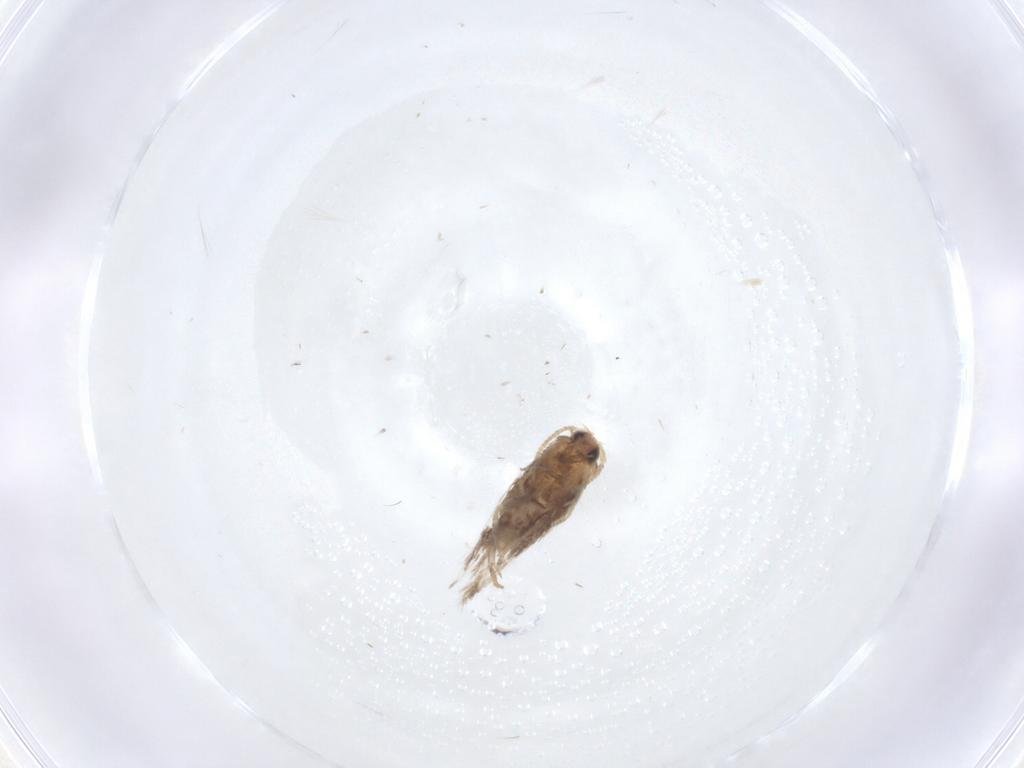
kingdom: Animalia
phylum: Arthropoda
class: Insecta
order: Lepidoptera
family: Nepticulidae
